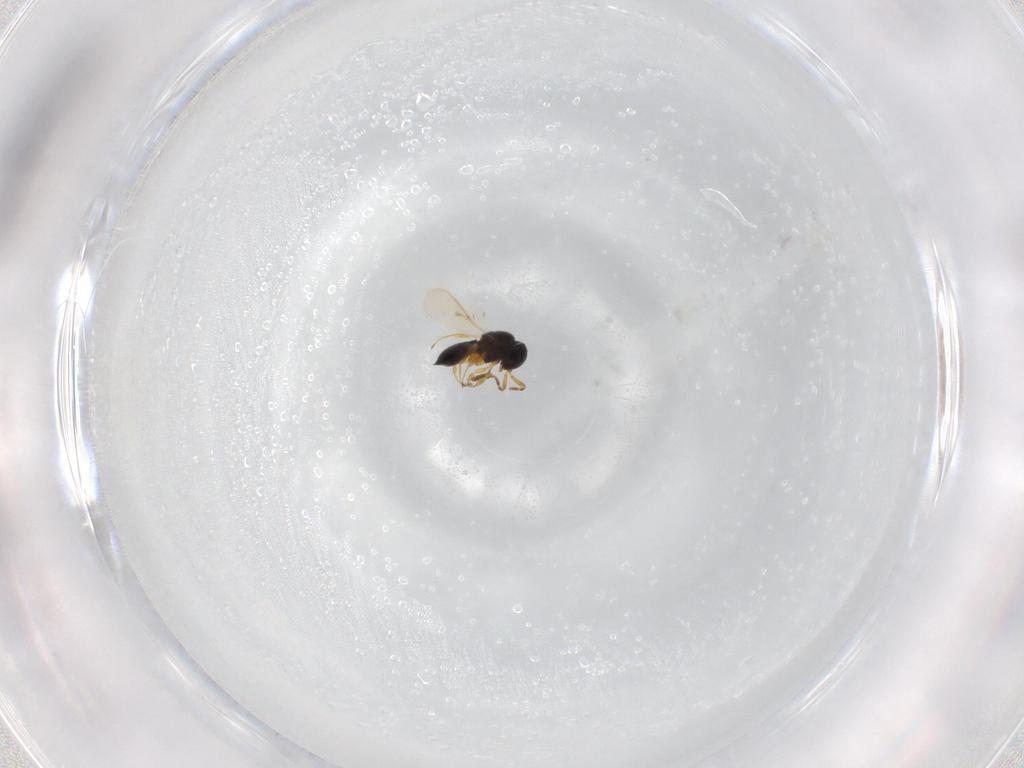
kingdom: Animalia
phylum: Arthropoda
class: Insecta
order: Hymenoptera
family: Scelionidae
